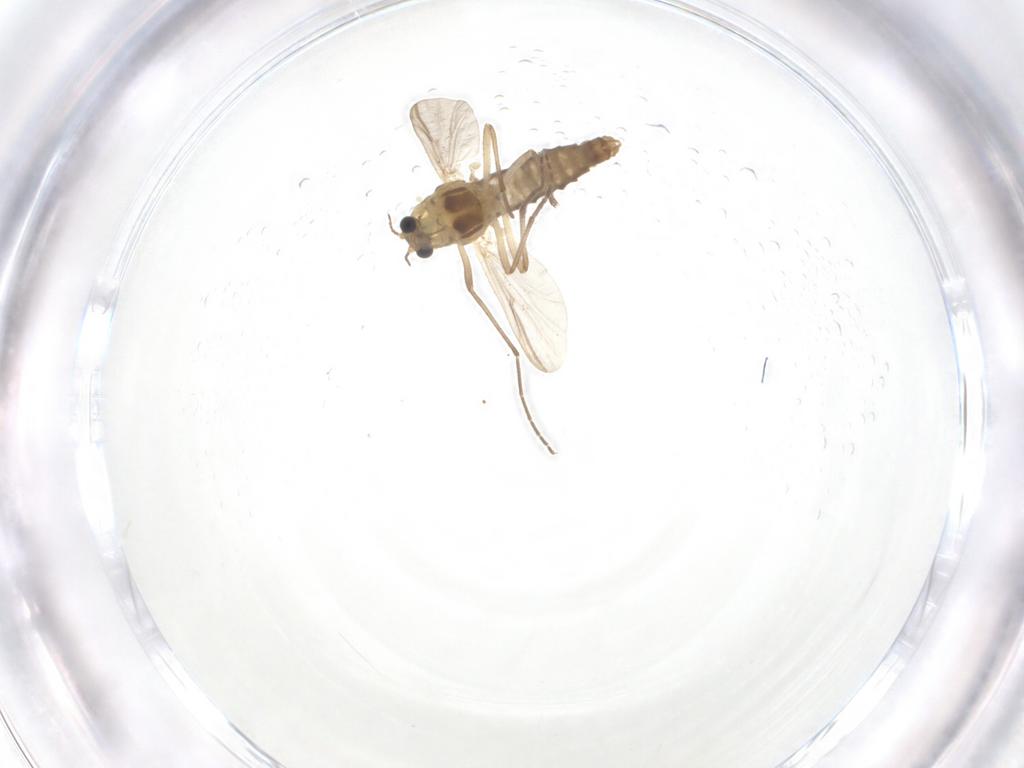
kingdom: Animalia
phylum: Arthropoda
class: Insecta
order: Diptera
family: Chironomidae
